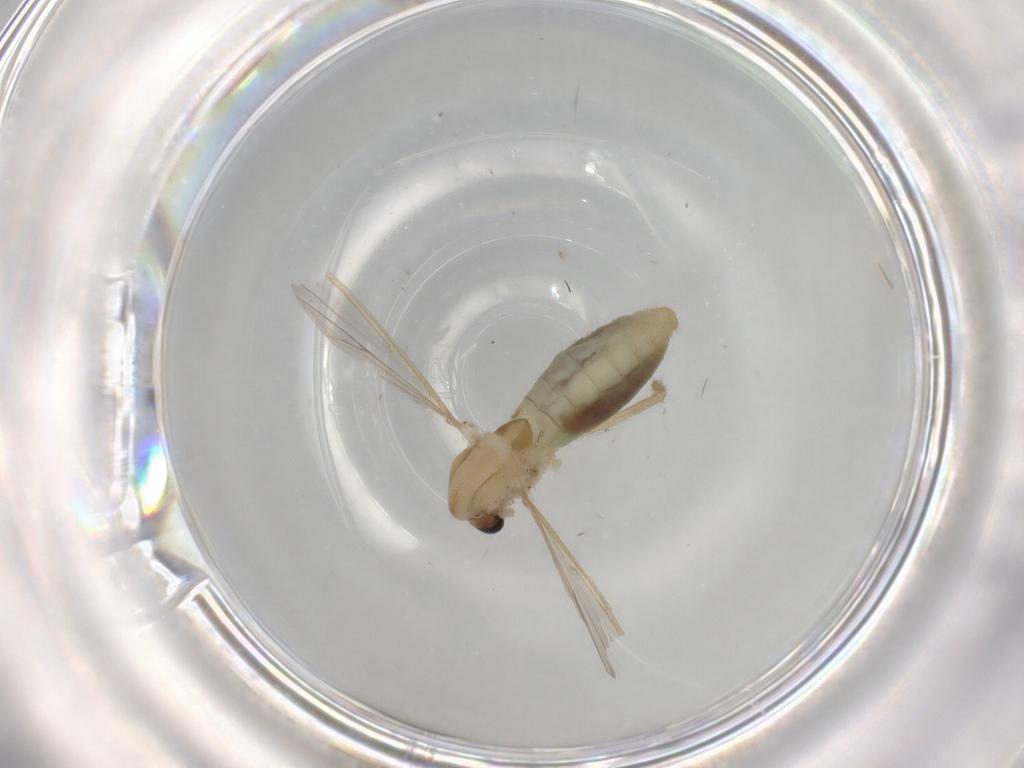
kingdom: Animalia
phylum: Arthropoda
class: Insecta
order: Diptera
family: Chironomidae
